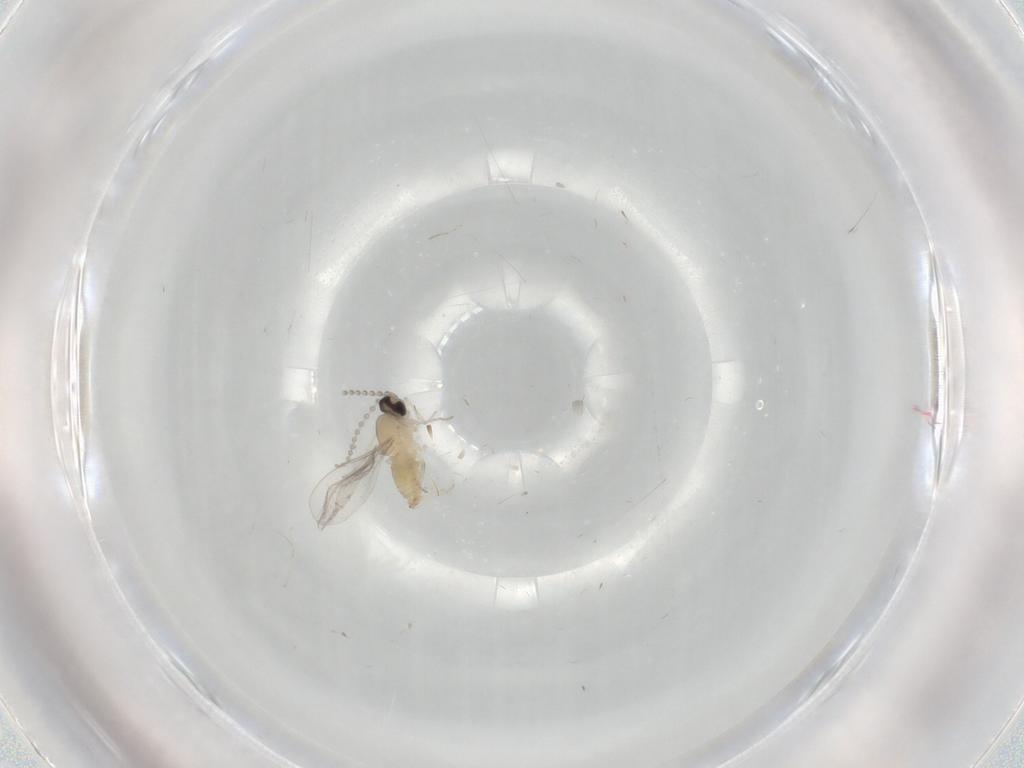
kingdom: Animalia
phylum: Arthropoda
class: Insecta
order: Diptera
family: Cecidomyiidae
